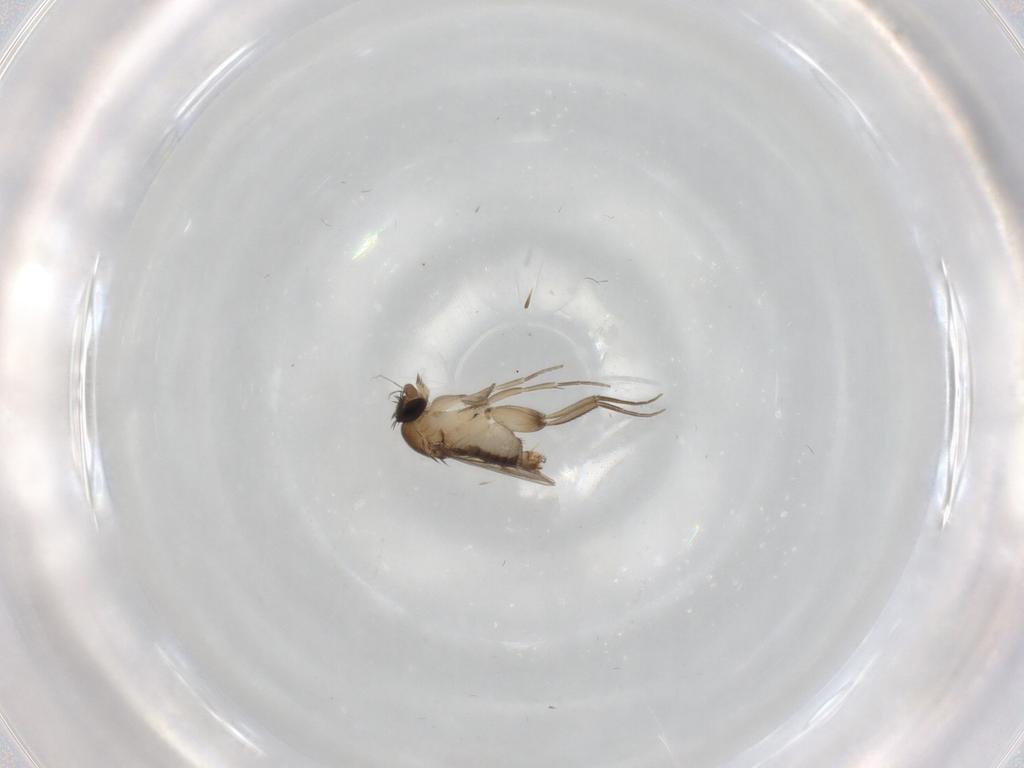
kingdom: Animalia
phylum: Arthropoda
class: Insecta
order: Diptera
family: Phoridae
